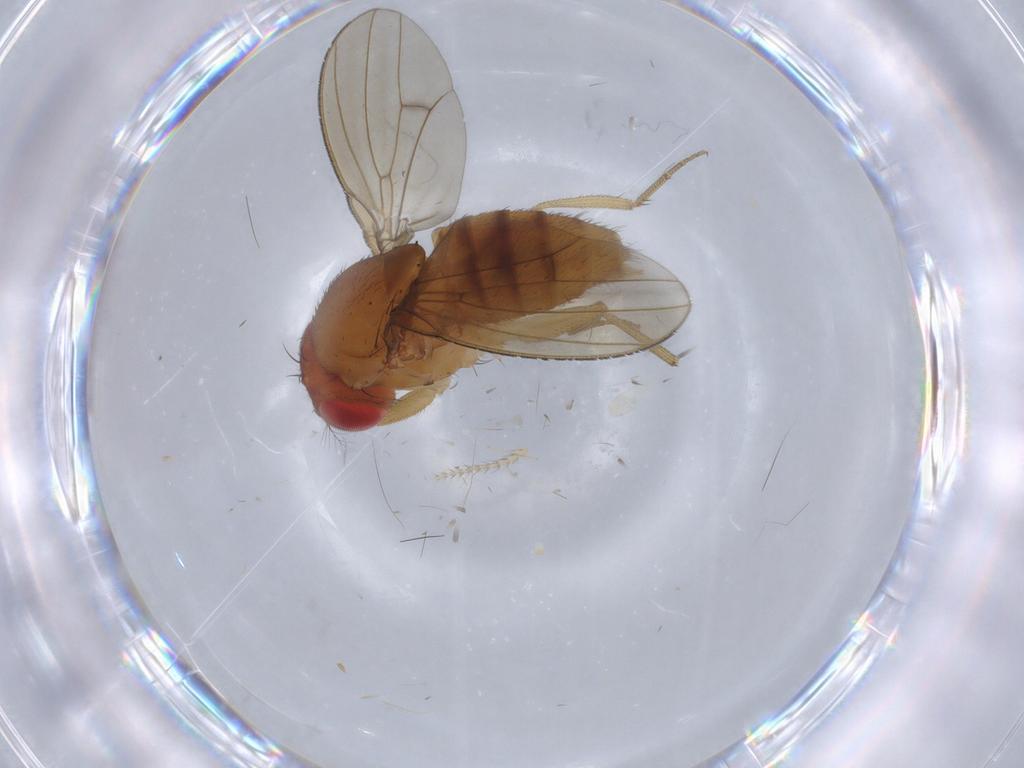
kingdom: Animalia
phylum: Arthropoda
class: Insecta
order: Diptera
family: Drosophilidae
